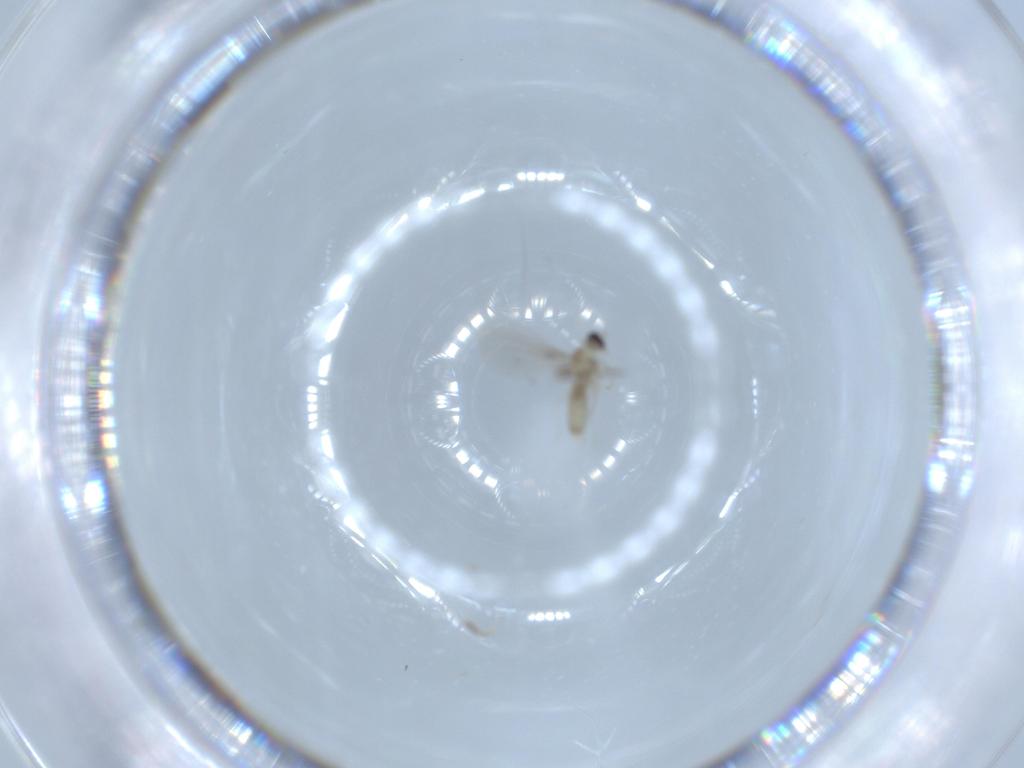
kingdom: Animalia
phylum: Arthropoda
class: Insecta
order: Diptera
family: Cecidomyiidae
